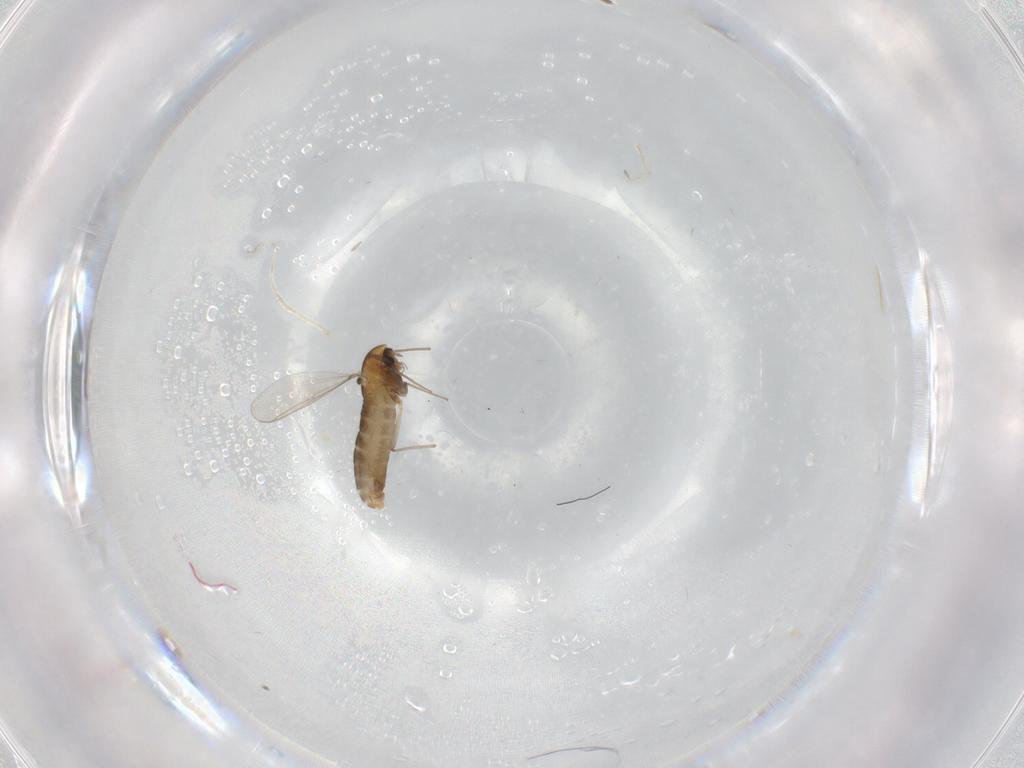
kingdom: Animalia
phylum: Arthropoda
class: Insecta
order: Diptera
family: Chironomidae
